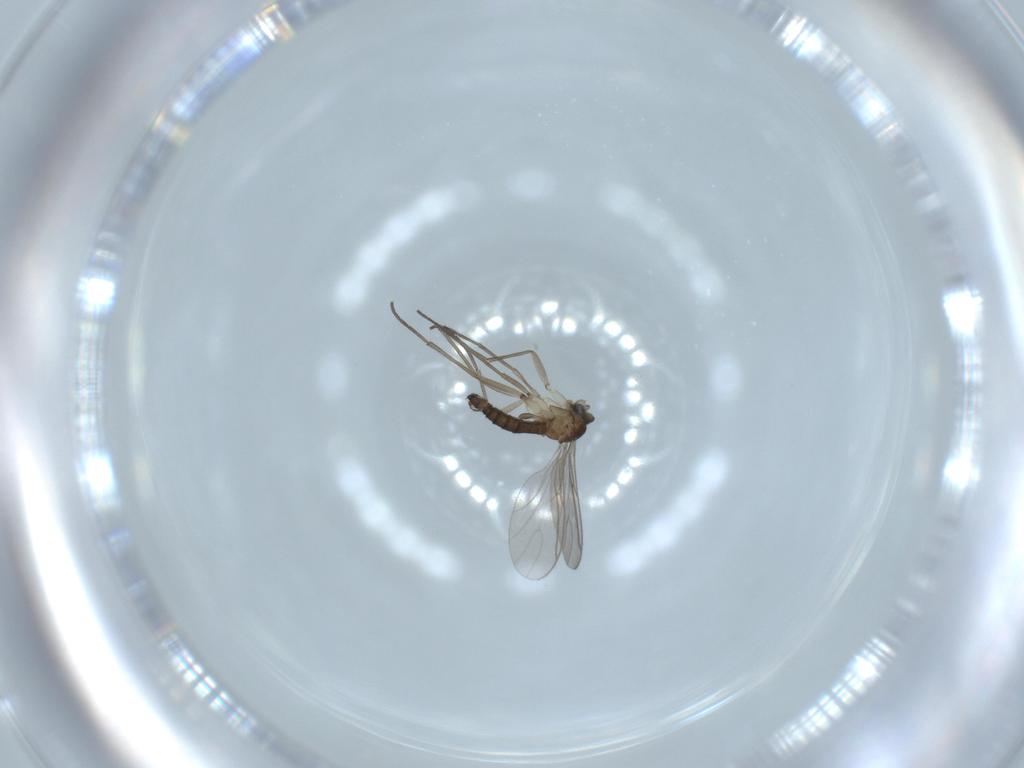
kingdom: Animalia
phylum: Arthropoda
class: Insecta
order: Diptera
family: Sciaridae
